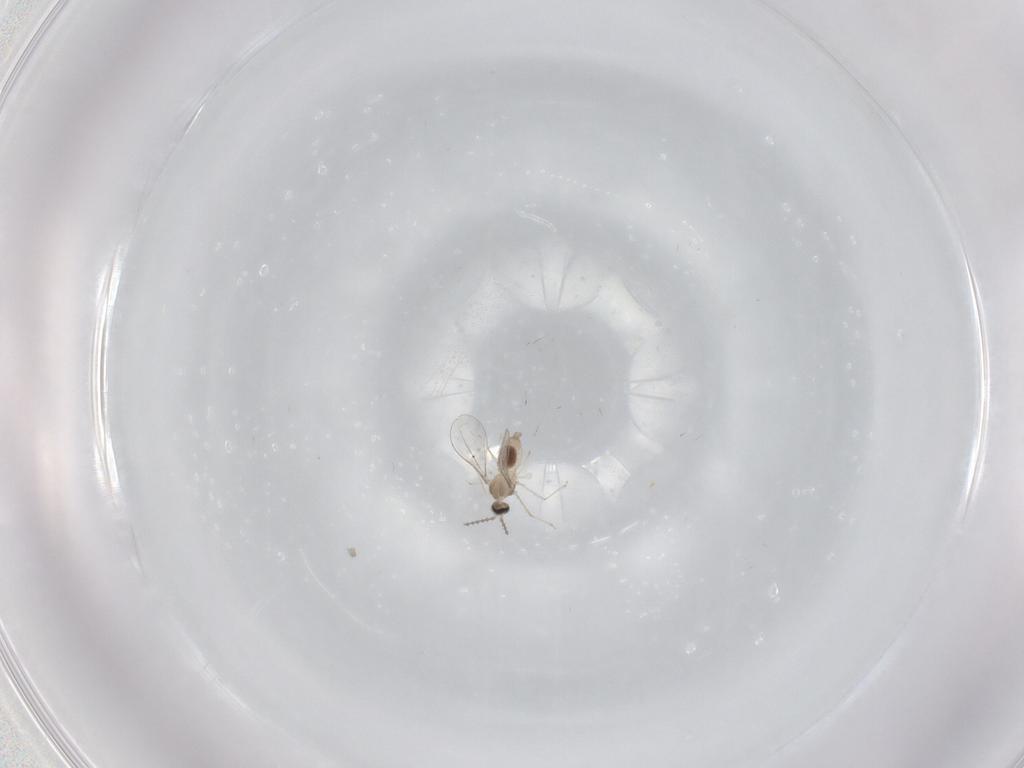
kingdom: Animalia
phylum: Arthropoda
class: Insecta
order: Diptera
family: Cecidomyiidae
